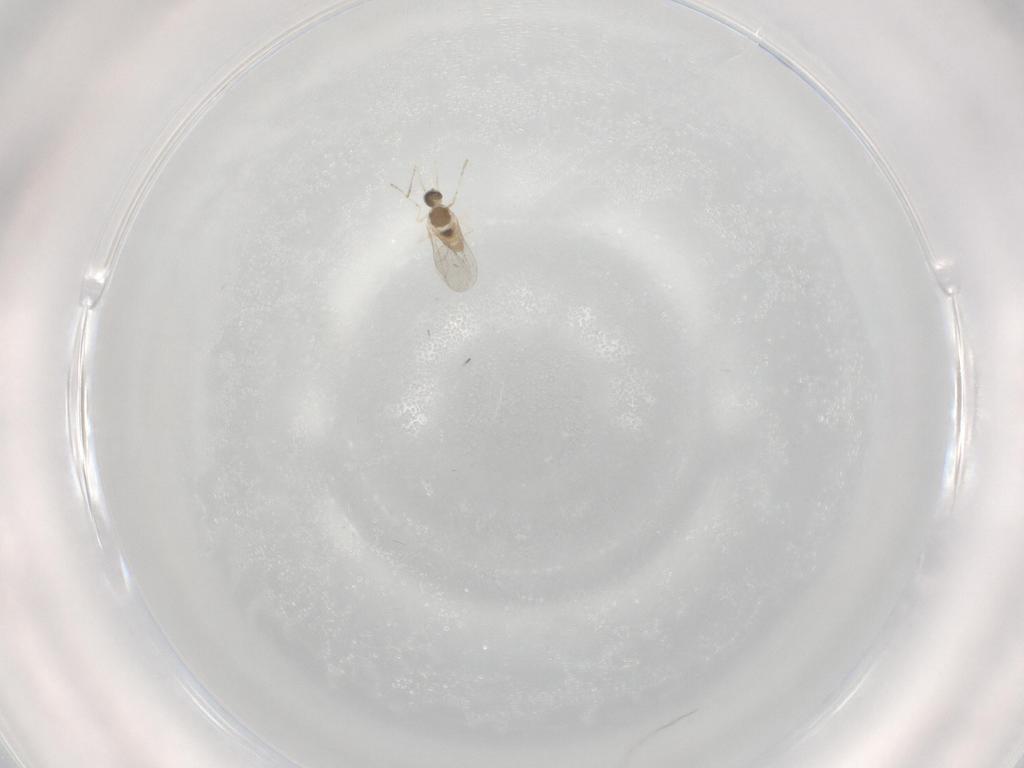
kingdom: Animalia
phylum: Arthropoda
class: Insecta
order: Diptera
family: Cecidomyiidae
